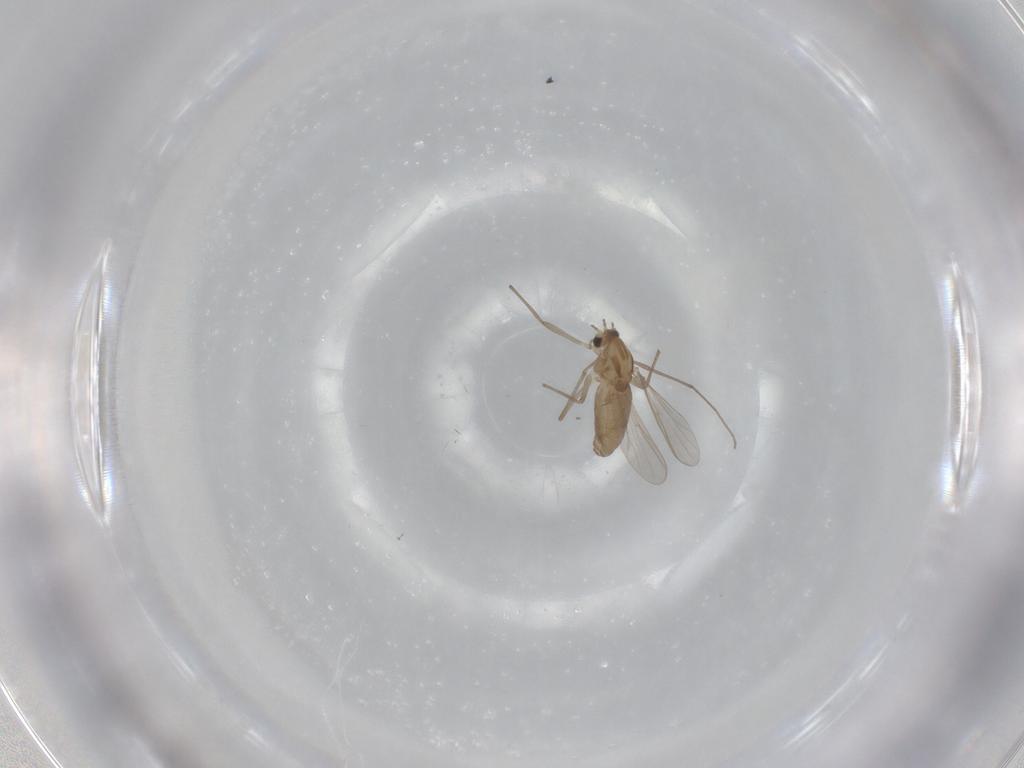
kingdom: Animalia
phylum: Arthropoda
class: Insecta
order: Diptera
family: Chironomidae
